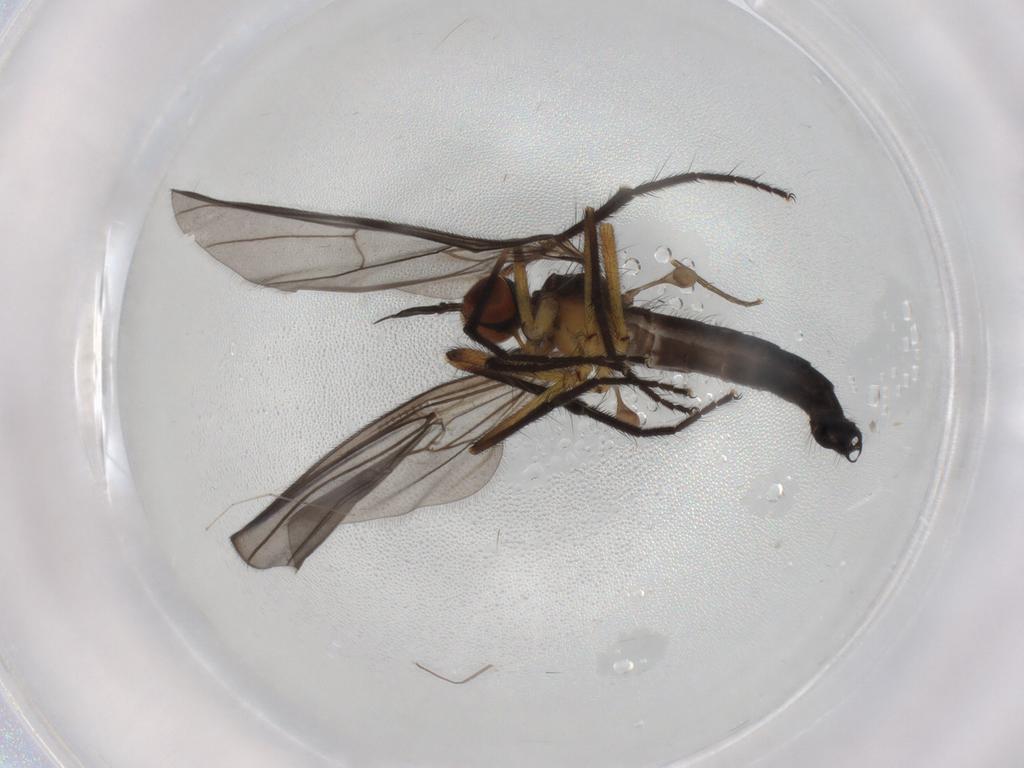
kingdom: Animalia
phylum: Arthropoda
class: Insecta
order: Diptera
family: Empididae
